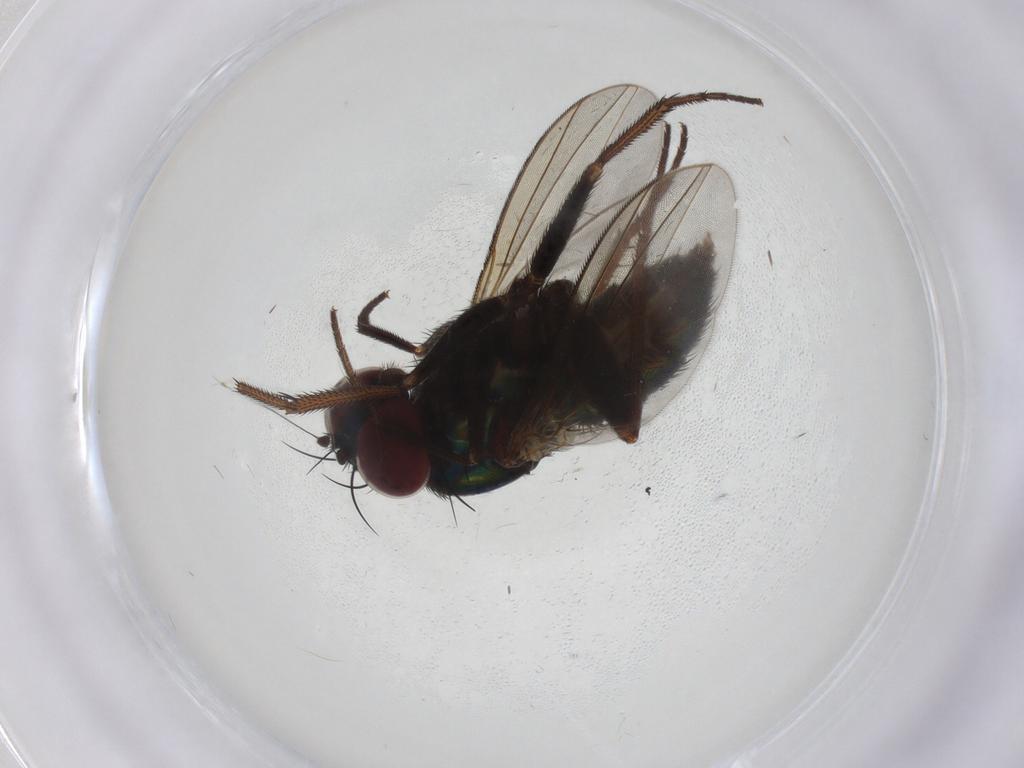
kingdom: Animalia
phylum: Arthropoda
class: Insecta
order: Diptera
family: Dolichopodidae
